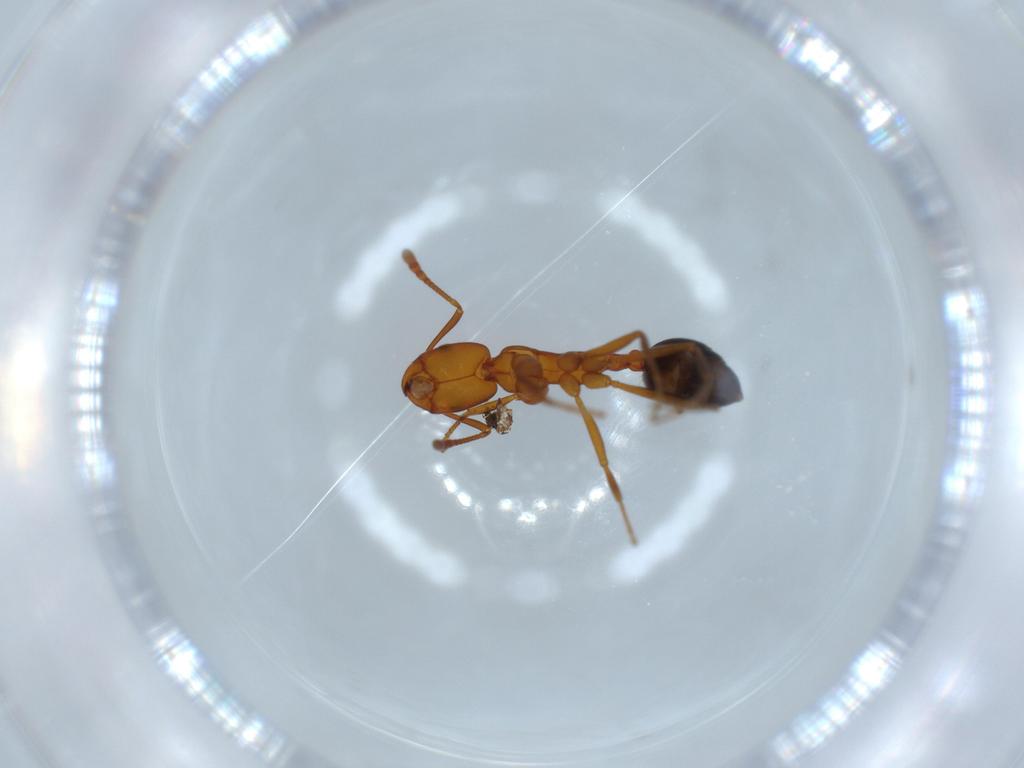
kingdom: Animalia
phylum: Arthropoda
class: Insecta
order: Hymenoptera
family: Formicidae
